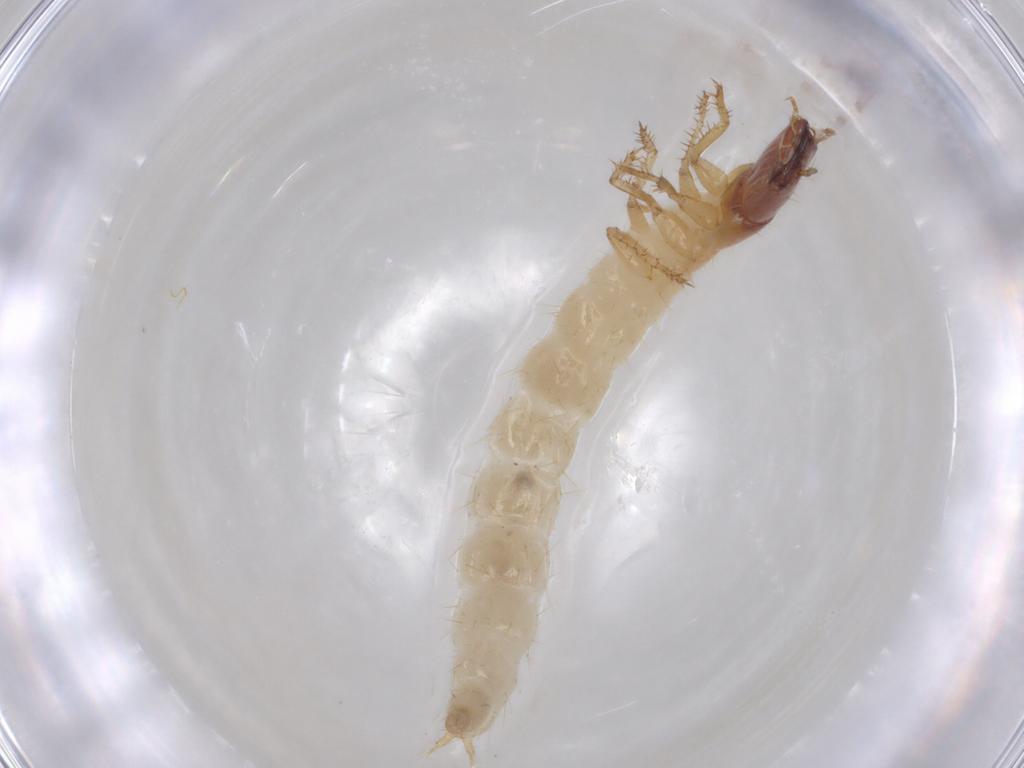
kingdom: Animalia
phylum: Arthropoda
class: Insecta
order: Coleoptera
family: Staphylinidae
